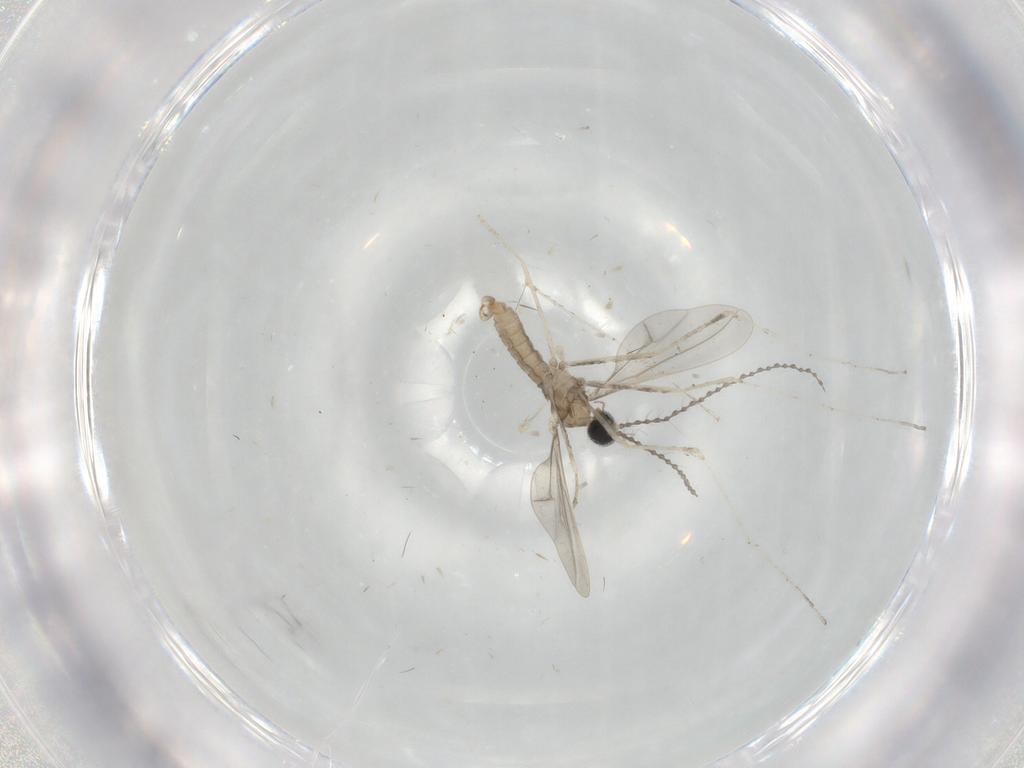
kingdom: Animalia
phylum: Arthropoda
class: Insecta
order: Diptera
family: Cecidomyiidae
